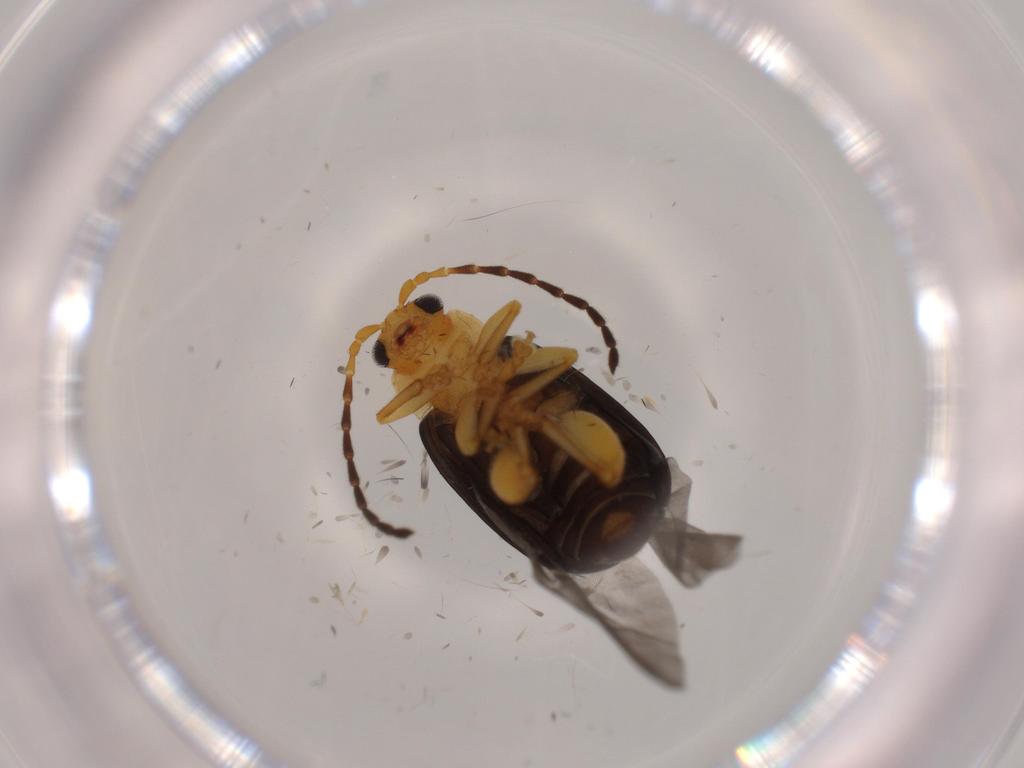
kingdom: Animalia
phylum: Arthropoda
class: Insecta
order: Coleoptera
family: Chrysomelidae
